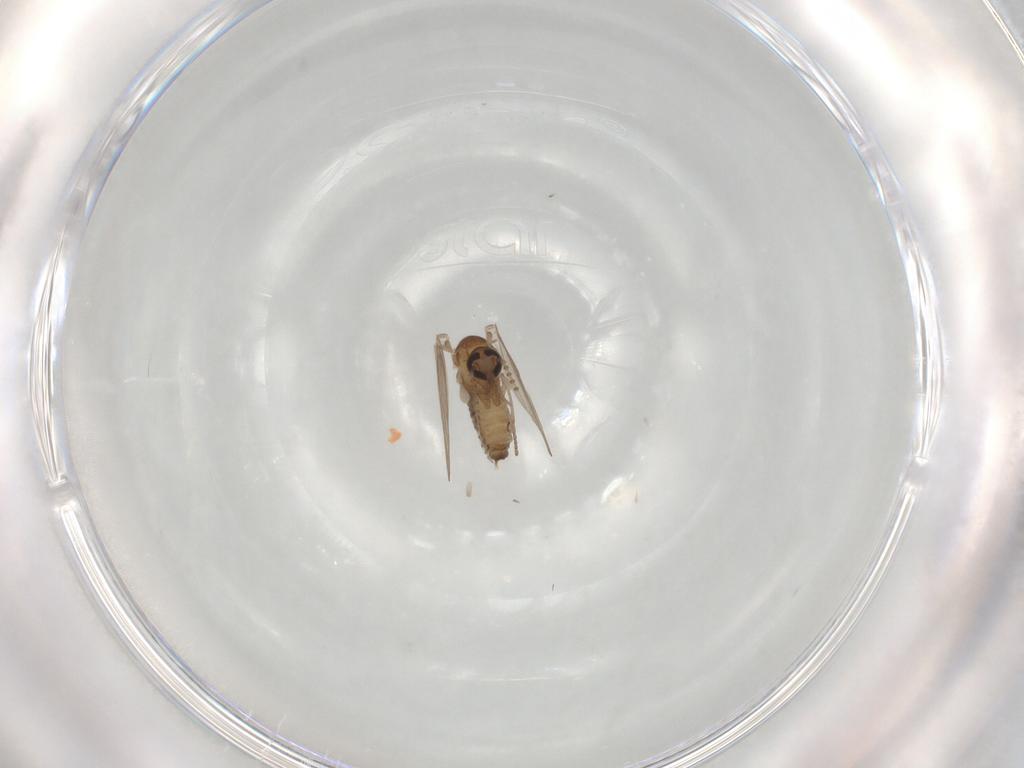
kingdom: Animalia
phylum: Arthropoda
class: Insecta
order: Diptera
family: Psychodidae
